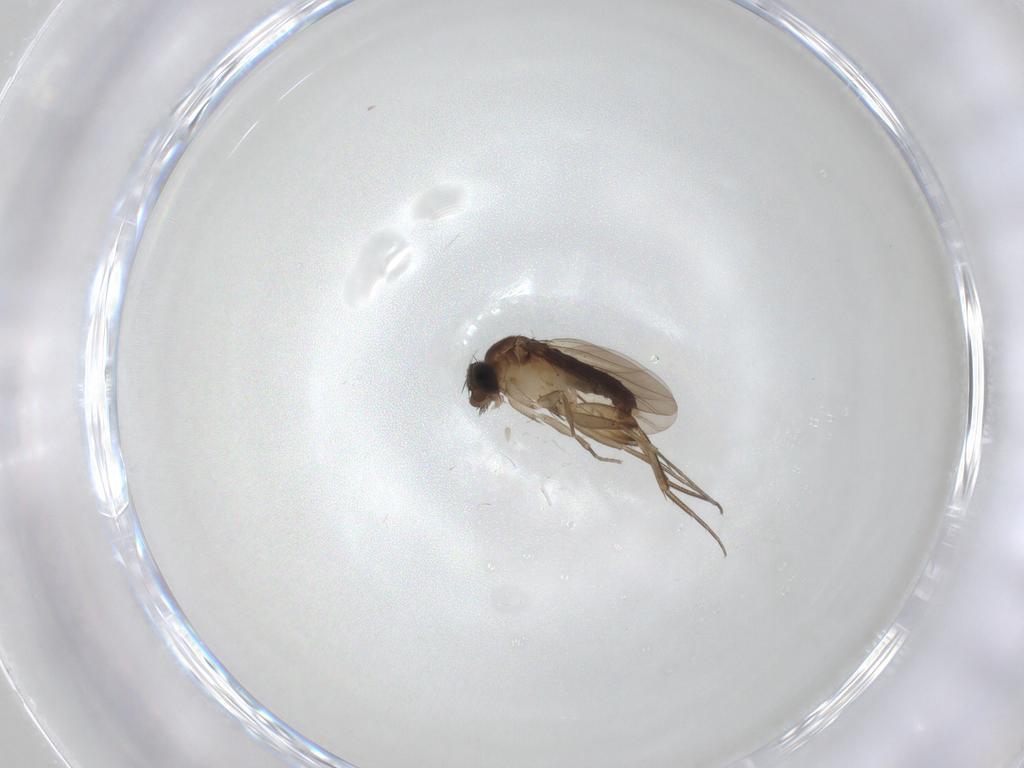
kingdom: Animalia
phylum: Arthropoda
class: Insecta
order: Diptera
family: Phoridae
